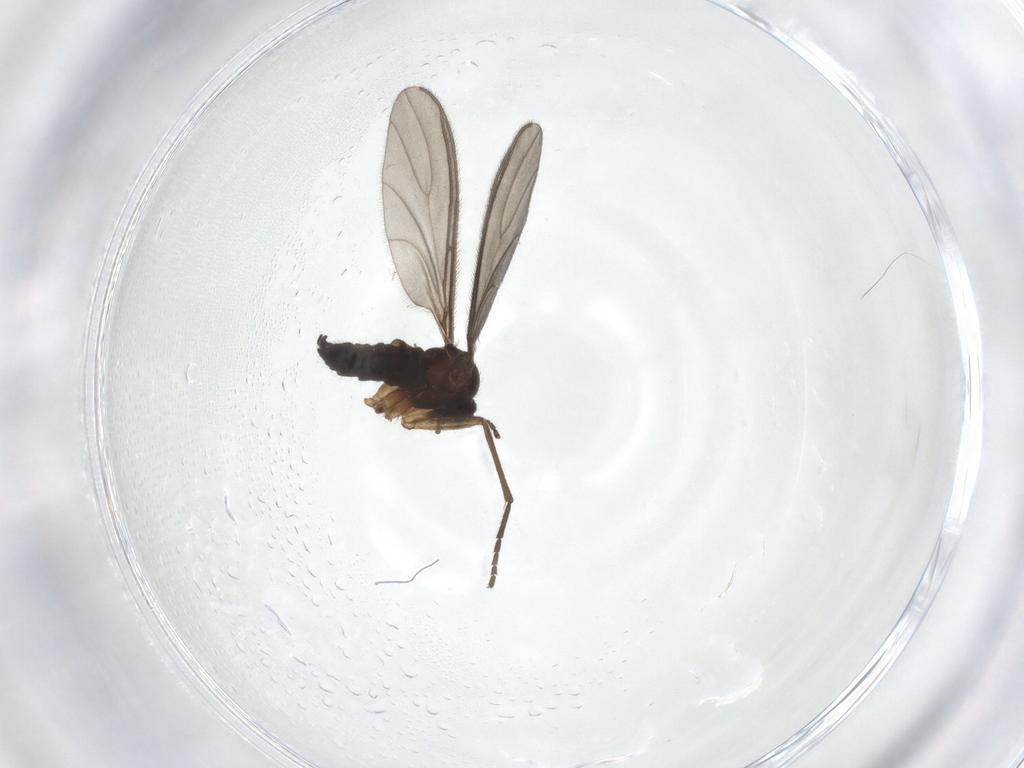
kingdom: Animalia
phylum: Arthropoda
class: Insecta
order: Diptera
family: Sciaridae
